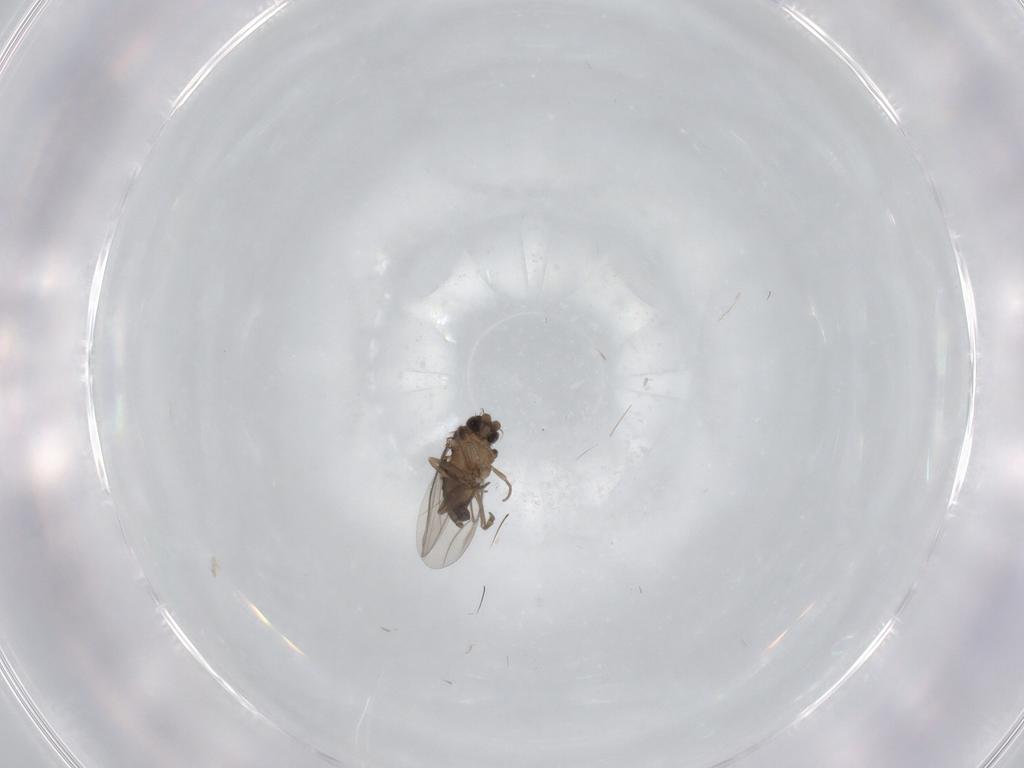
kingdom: Animalia
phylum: Arthropoda
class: Insecta
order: Diptera
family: Phoridae
